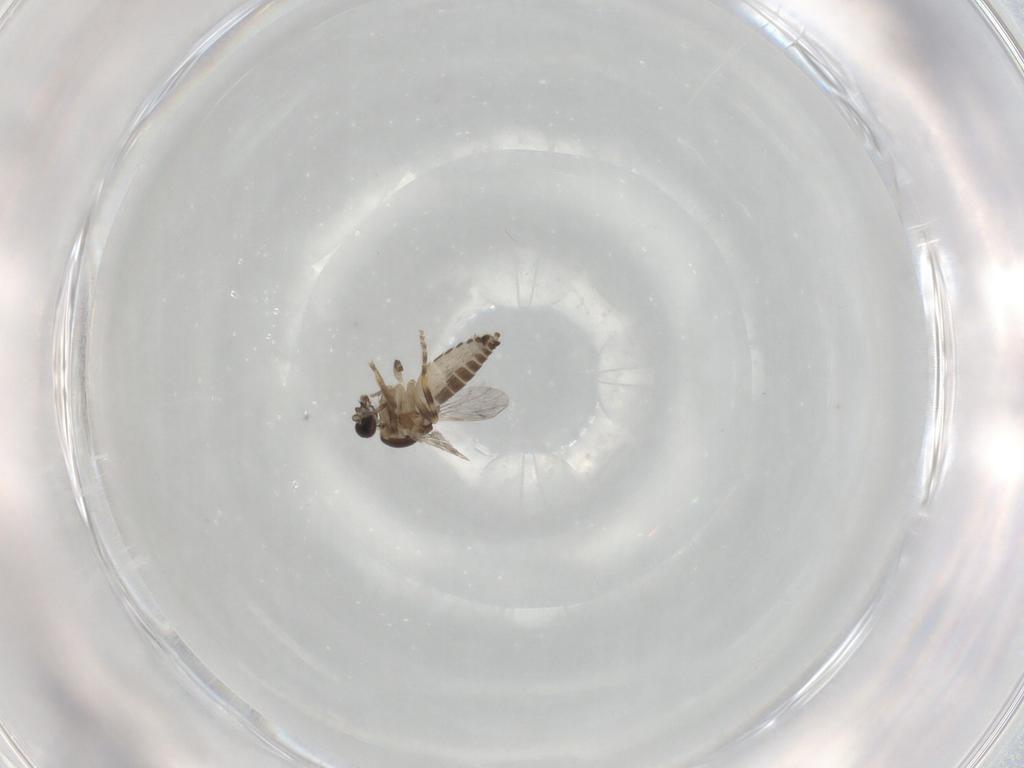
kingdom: Animalia
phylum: Arthropoda
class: Insecta
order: Diptera
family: Ceratopogonidae
